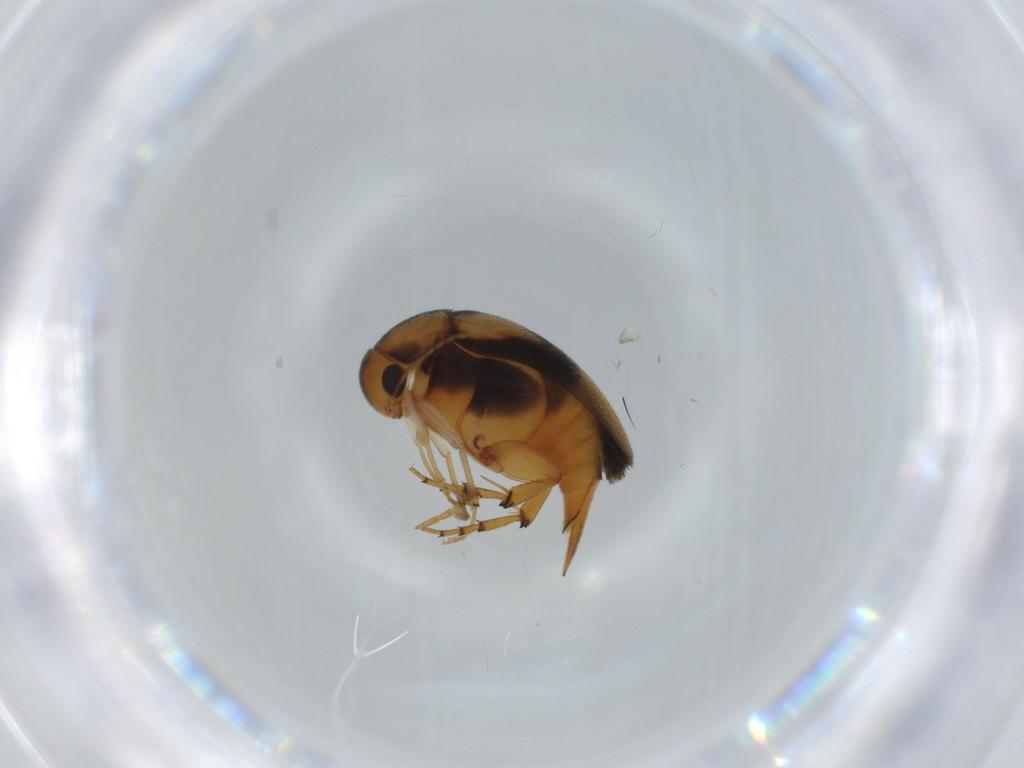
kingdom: Animalia
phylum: Arthropoda
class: Insecta
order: Coleoptera
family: Mordellidae
